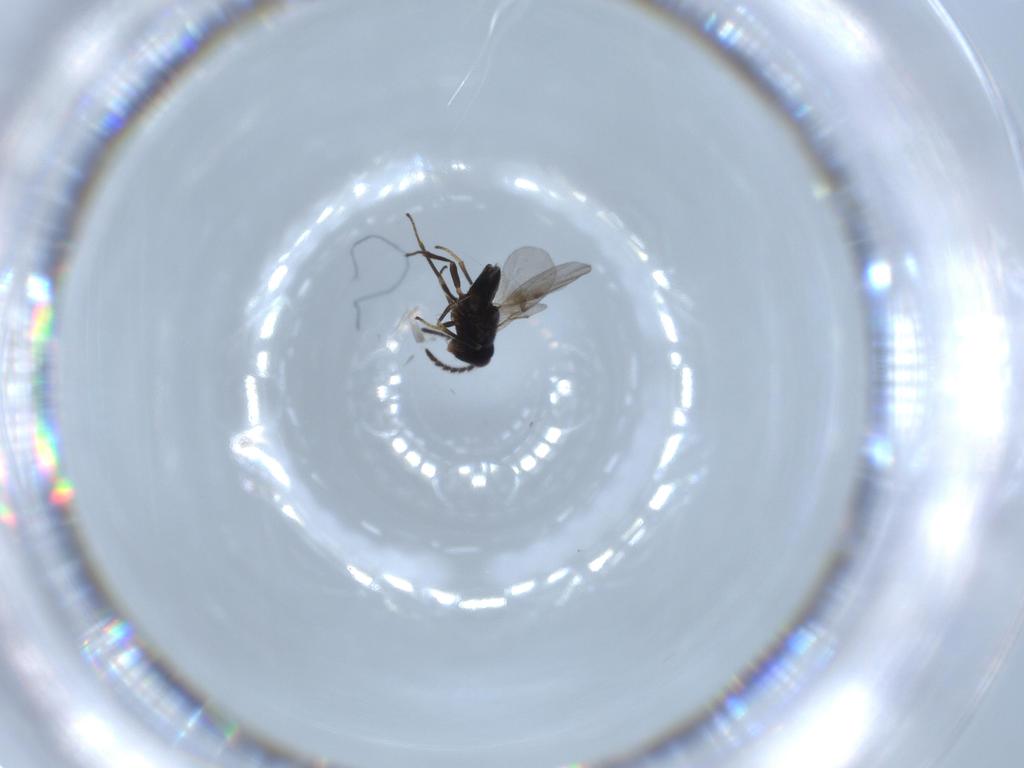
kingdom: Animalia
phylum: Arthropoda
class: Insecta
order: Hymenoptera
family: Encyrtidae
